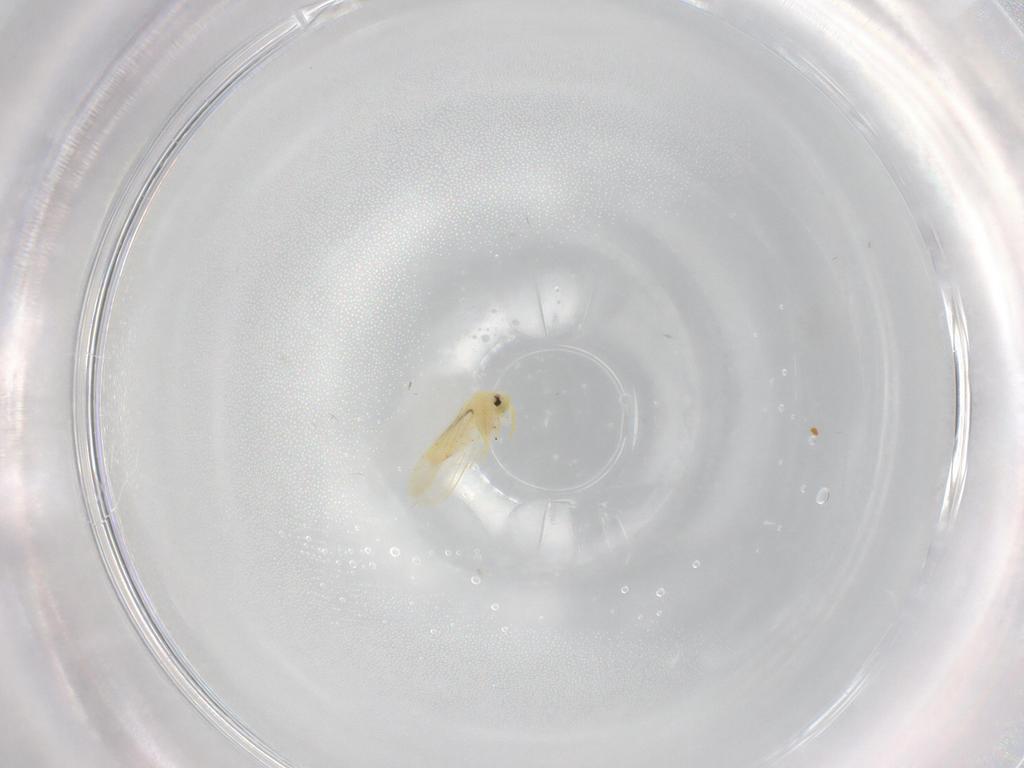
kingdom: Animalia
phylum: Arthropoda
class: Insecta
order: Hemiptera
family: Aleyrodidae
